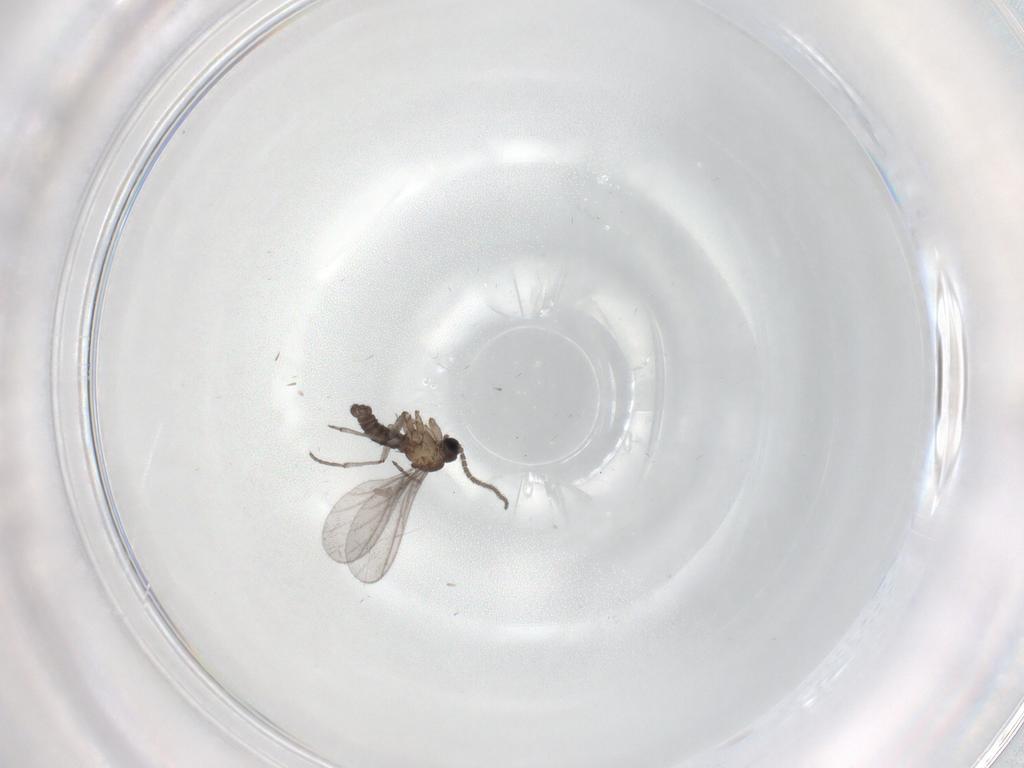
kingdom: Animalia
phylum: Arthropoda
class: Insecta
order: Diptera
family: Sciaridae
